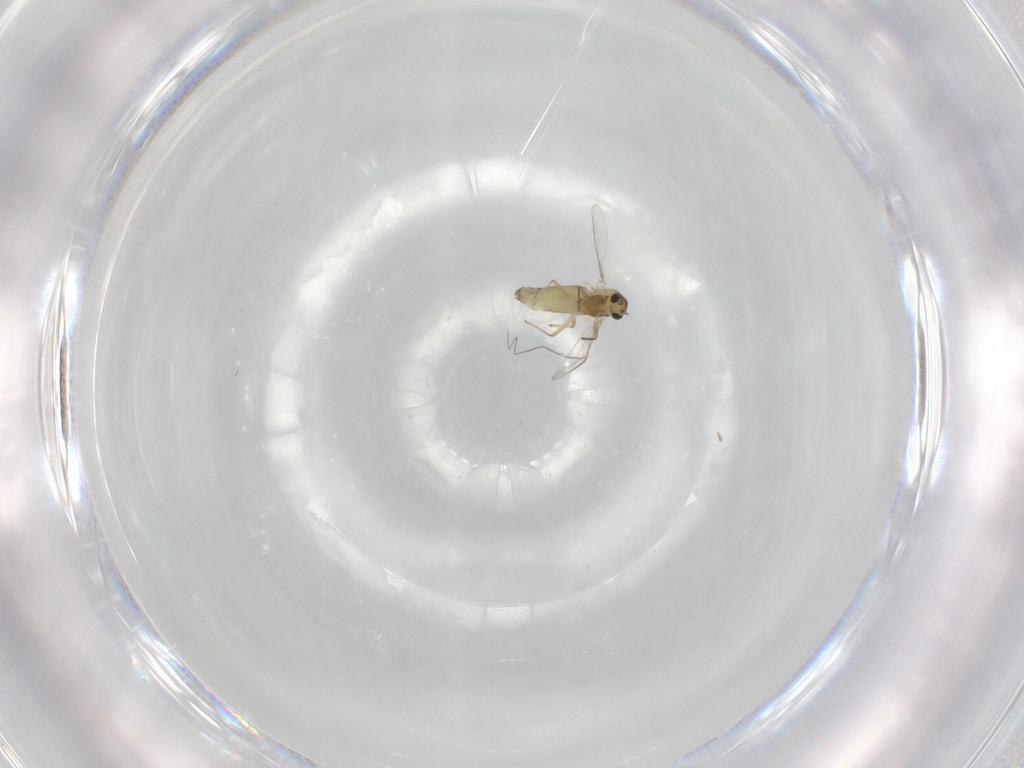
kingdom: Animalia
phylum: Arthropoda
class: Insecta
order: Diptera
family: Chironomidae
